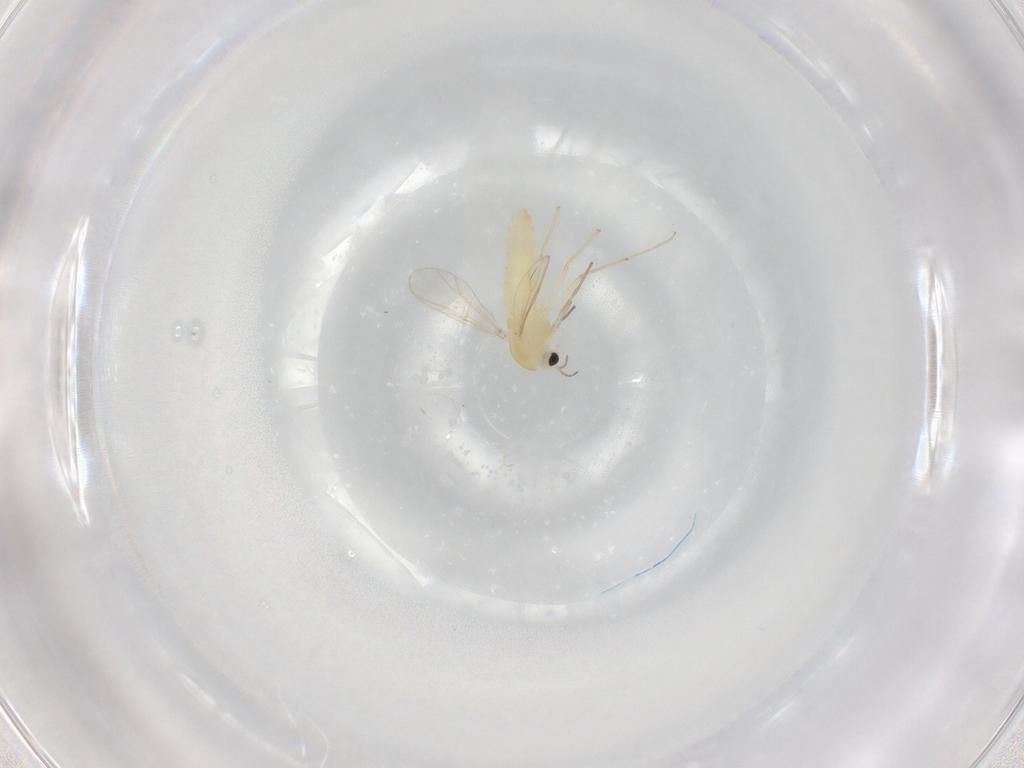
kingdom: Animalia
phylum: Arthropoda
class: Insecta
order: Diptera
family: Chironomidae
